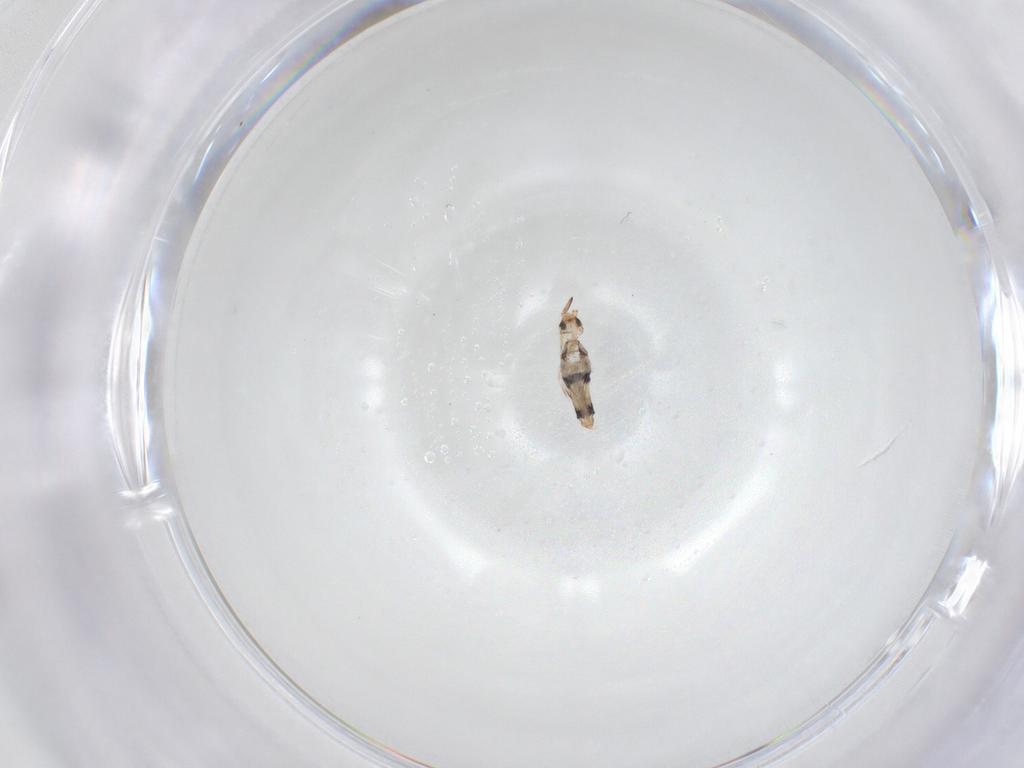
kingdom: Animalia
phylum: Arthropoda
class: Collembola
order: Entomobryomorpha
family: Entomobryidae
